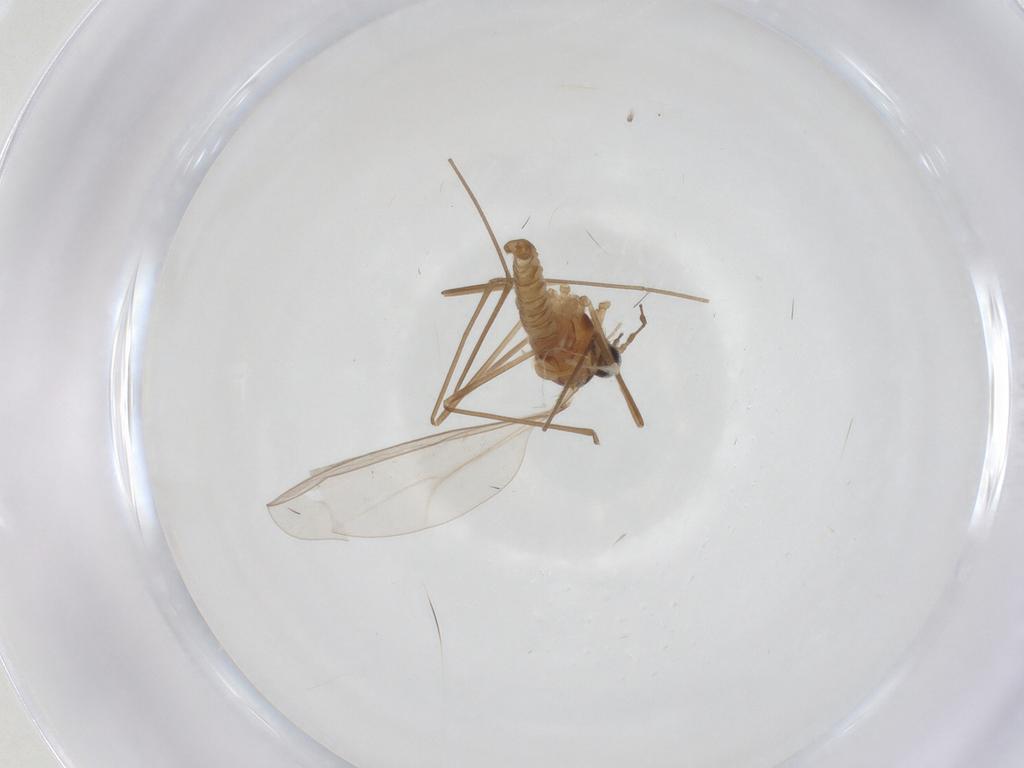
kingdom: Animalia
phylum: Arthropoda
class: Insecta
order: Diptera
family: Cecidomyiidae
